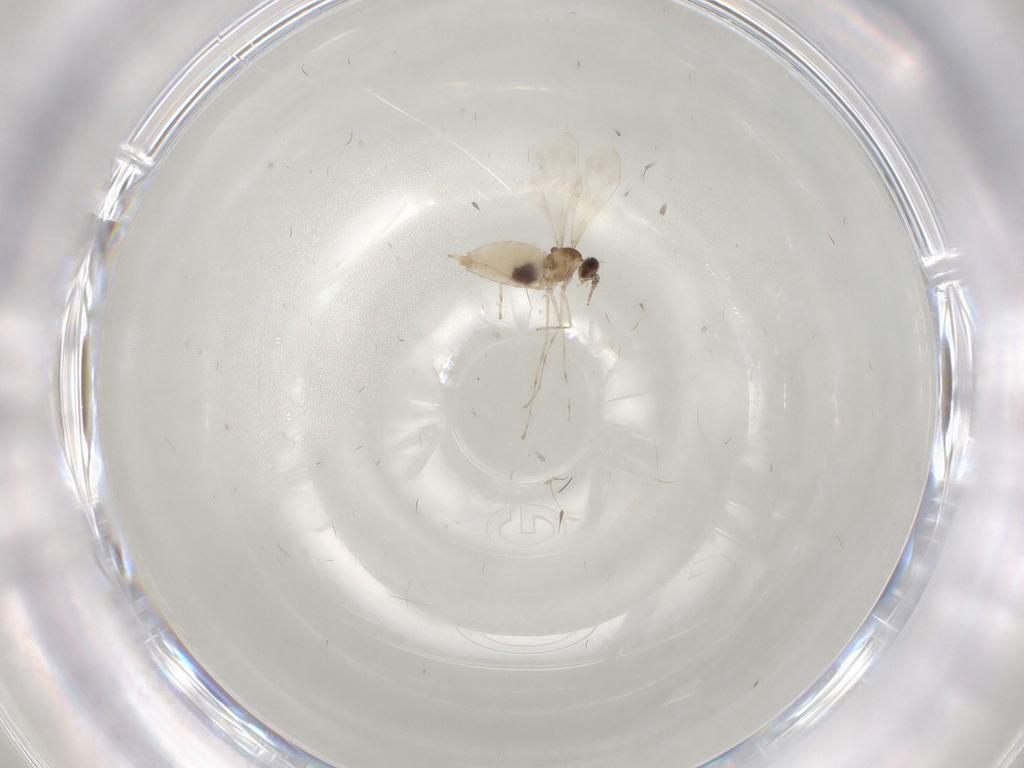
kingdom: Animalia
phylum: Arthropoda
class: Insecta
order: Diptera
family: Cecidomyiidae
